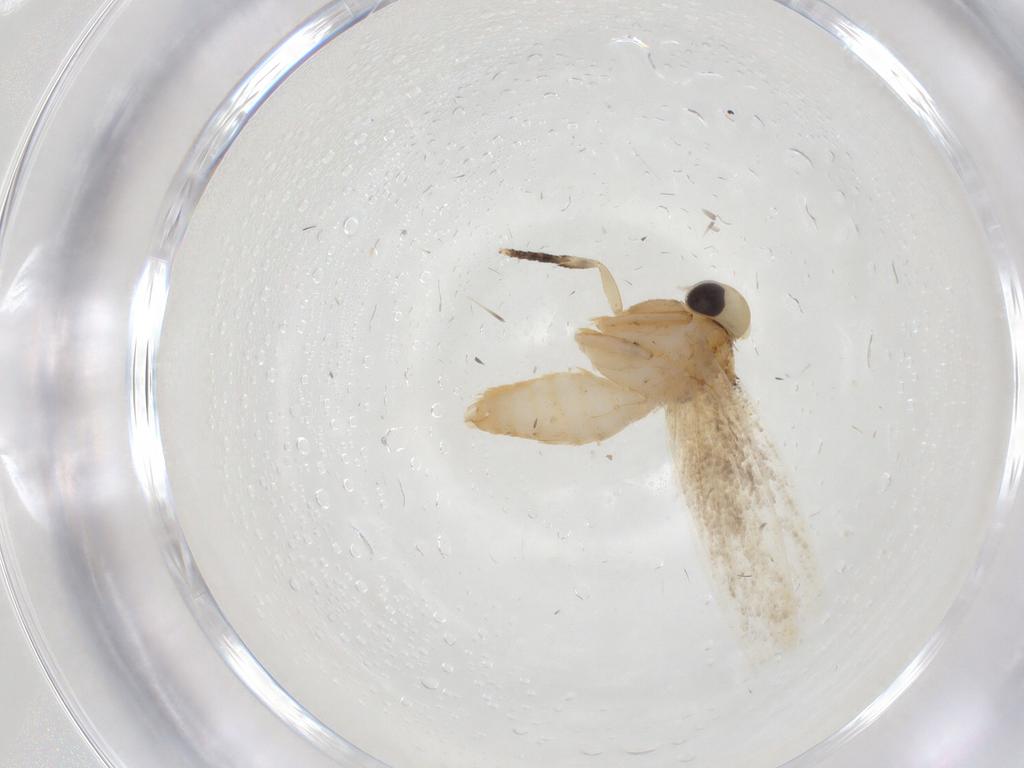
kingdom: Animalia
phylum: Arthropoda
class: Insecta
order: Lepidoptera
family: Oecophoridae
